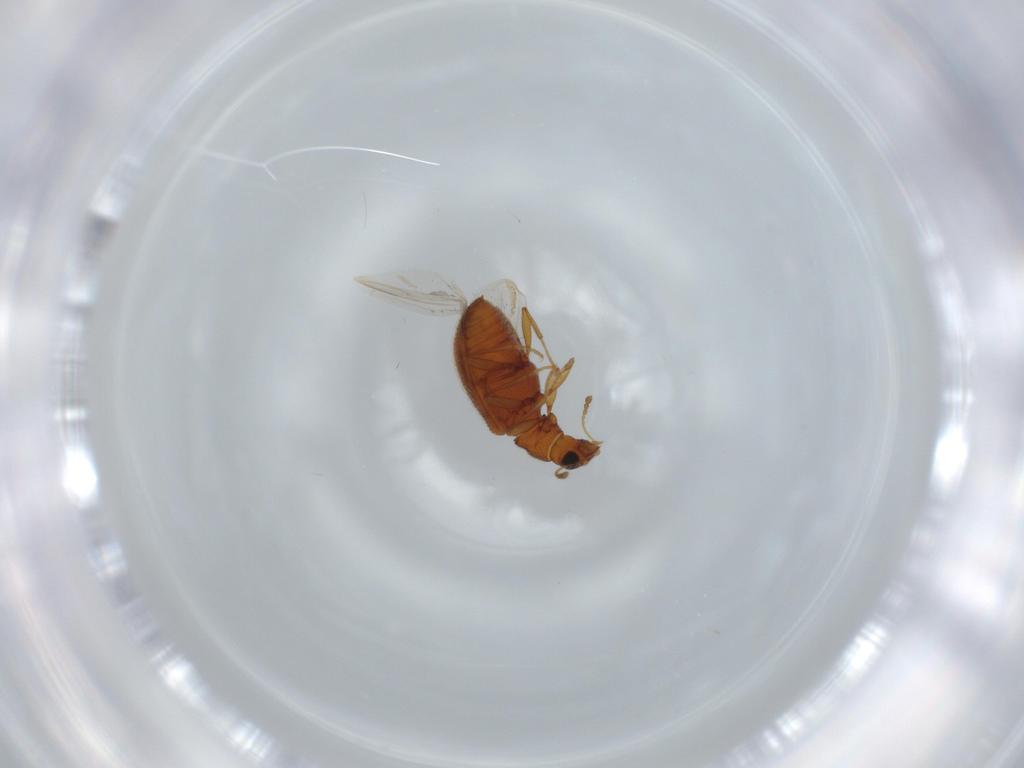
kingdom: Animalia
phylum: Arthropoda
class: Insecta
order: Coleoptera
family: Latridiidae
